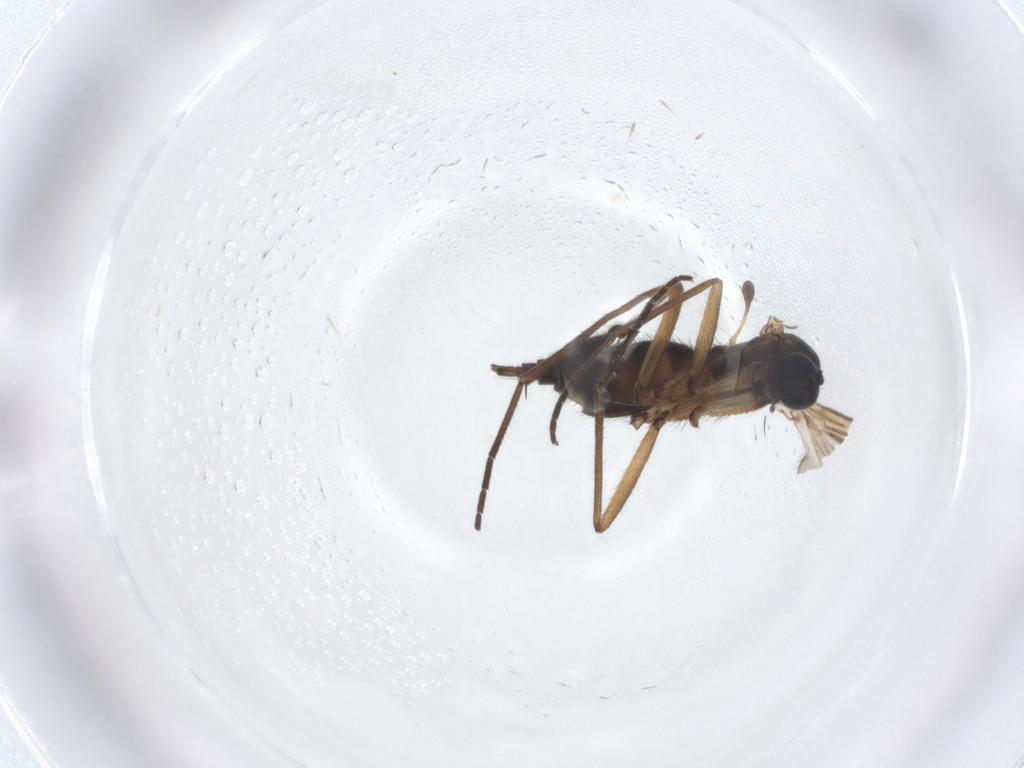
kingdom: Animalia
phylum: Arthropoda
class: Insecta
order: Diptera
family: Sciaridae
